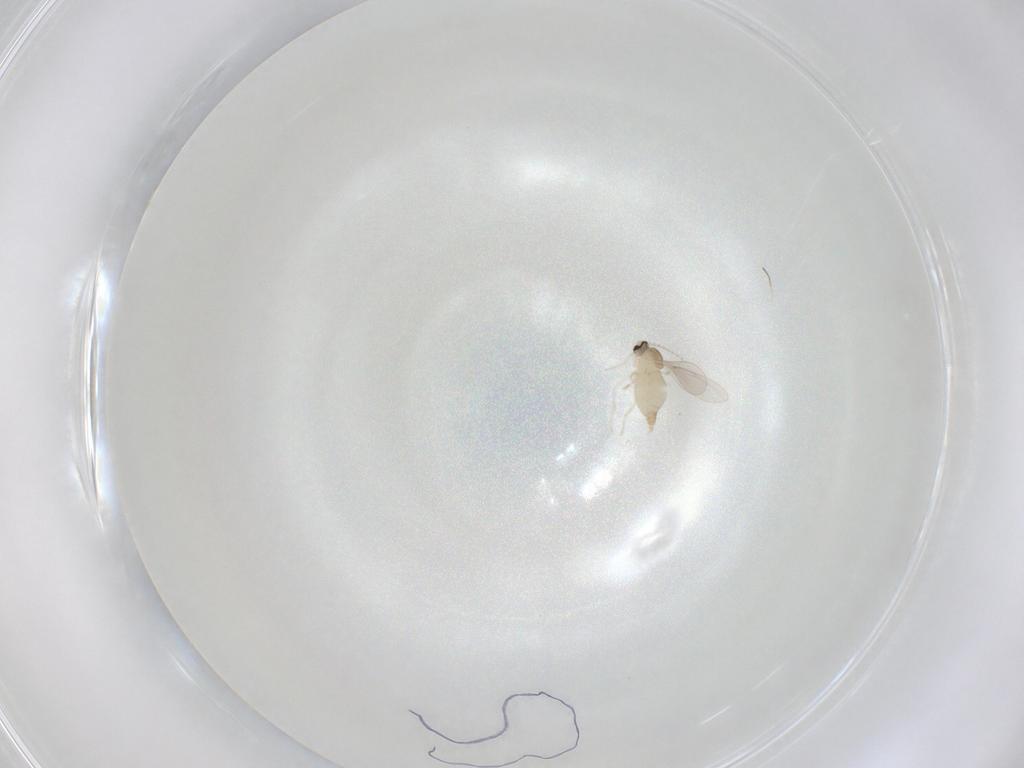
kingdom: Animalia
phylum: Arthropoda
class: Insecta
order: Diptera
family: Cecidomyiidae
